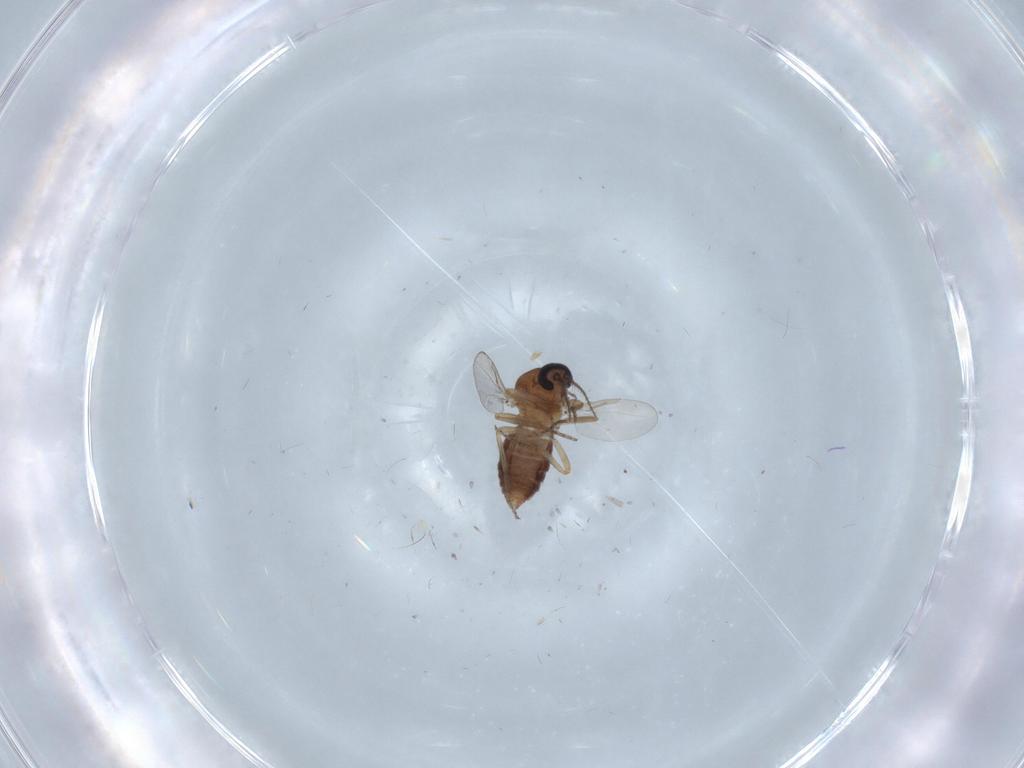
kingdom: Animalia
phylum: Arthropoda
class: Insecta
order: Diptera
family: Ceratopogonidae
